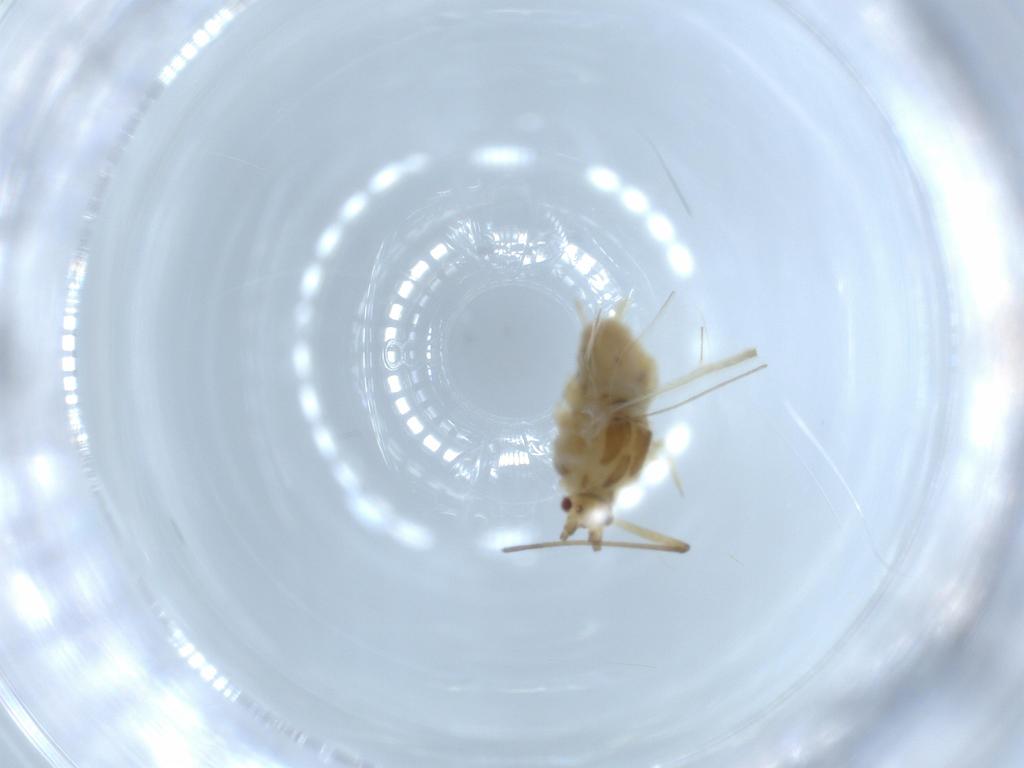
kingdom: Animalia
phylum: Arthropoda
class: Insecta
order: Hemiptera
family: Aphididae
